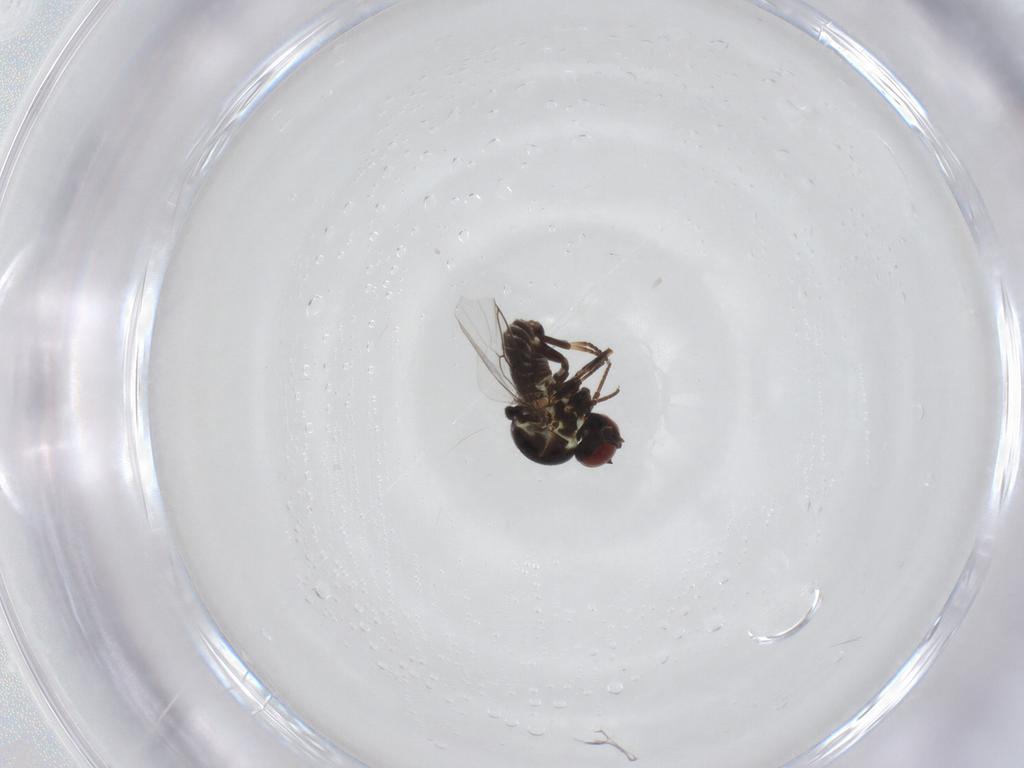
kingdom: Animalia
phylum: Arthropoda
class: Insecta
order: Diptera
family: Mythicomyiidae
